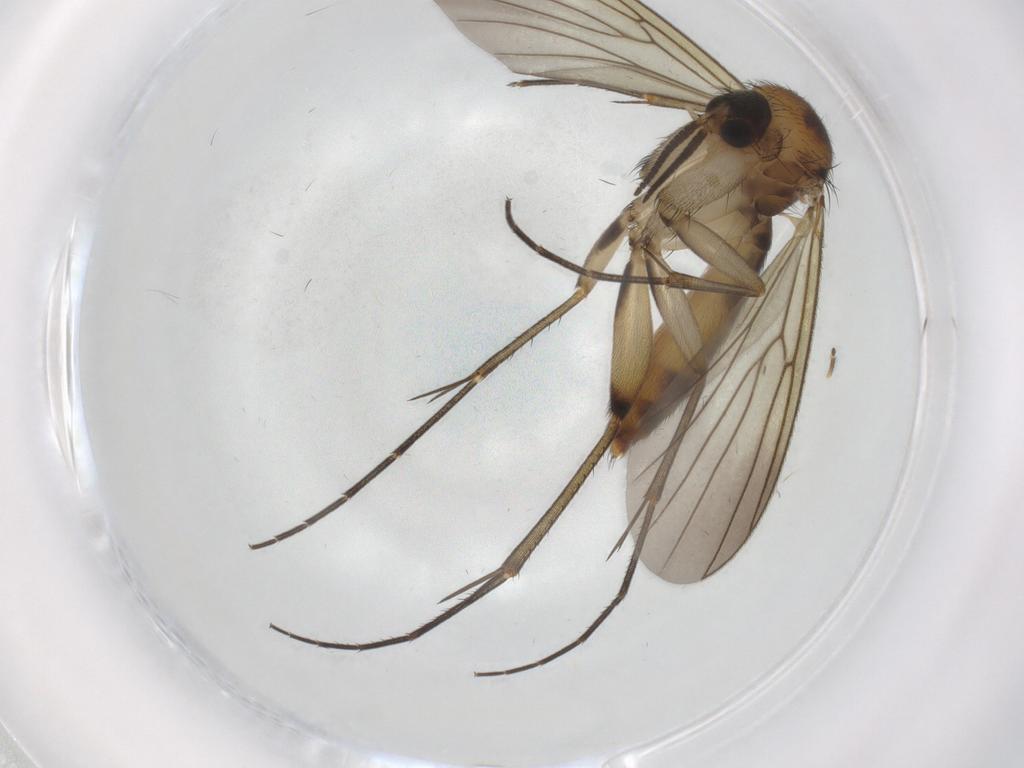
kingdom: Animalia
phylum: Arthropoda
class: Insecta
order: Diptera
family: Mycetophilidae
